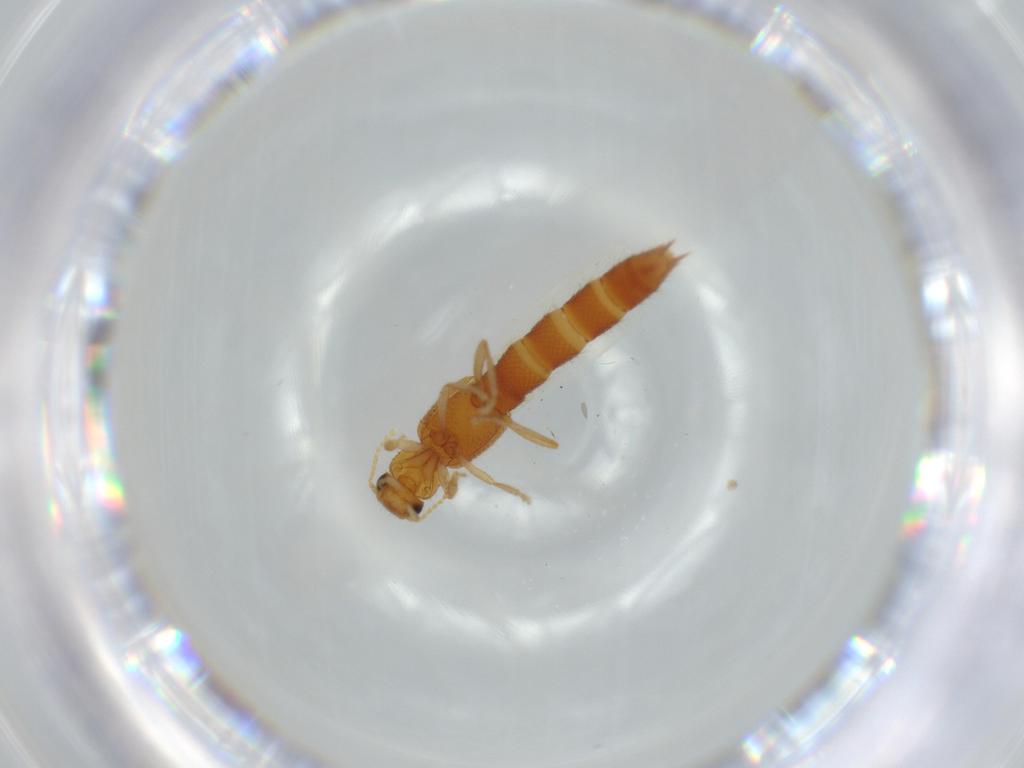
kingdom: Animalia
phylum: Arthropoda
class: Insecta
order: Coleoptera
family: Staphylinidae
